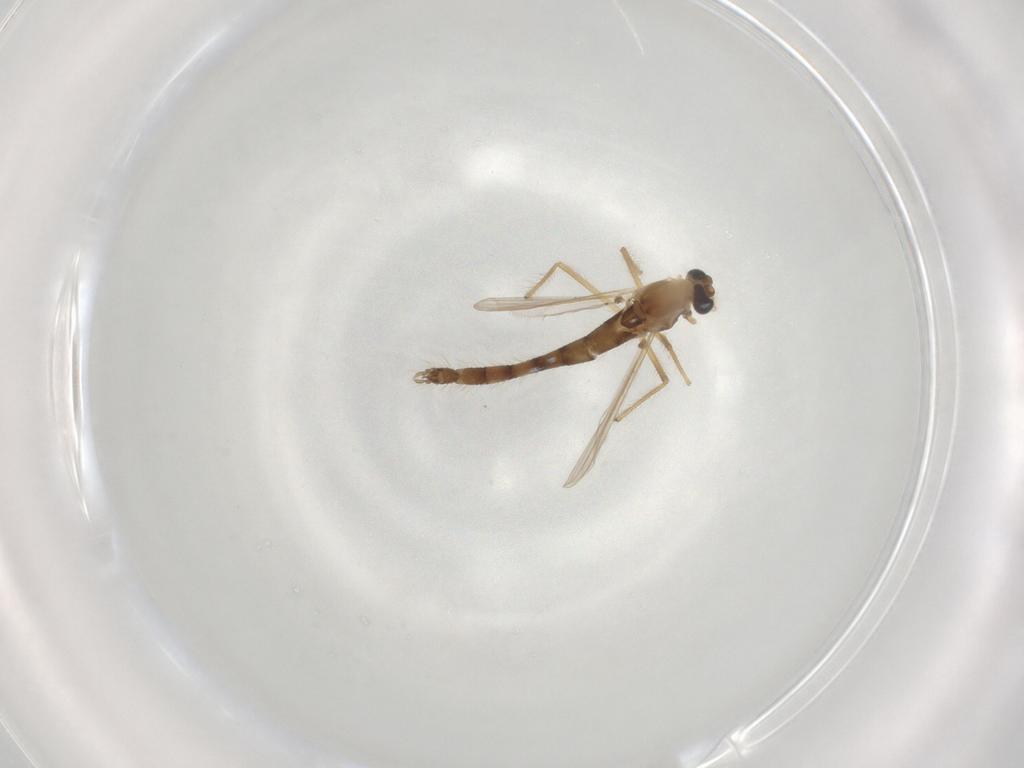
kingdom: Animalia
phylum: Arthropoda
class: Insecta
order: Diptera
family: Chironomidae
